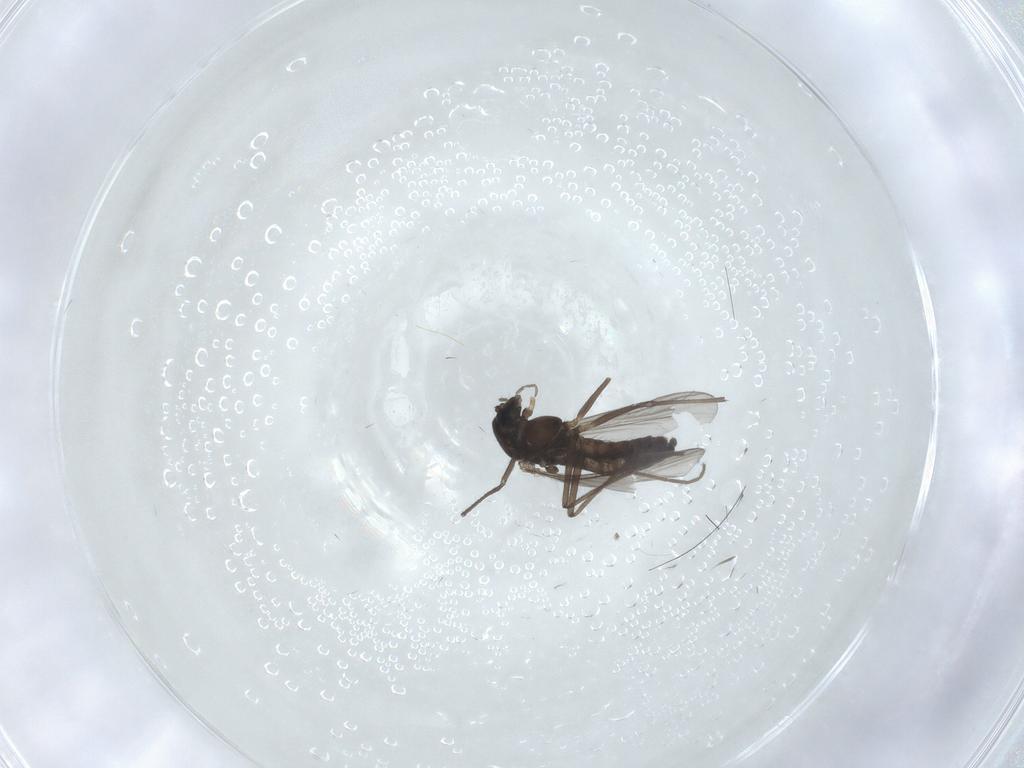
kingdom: Animalia
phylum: Arthropoda
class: Insecta
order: Diptera
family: Chironomidae
